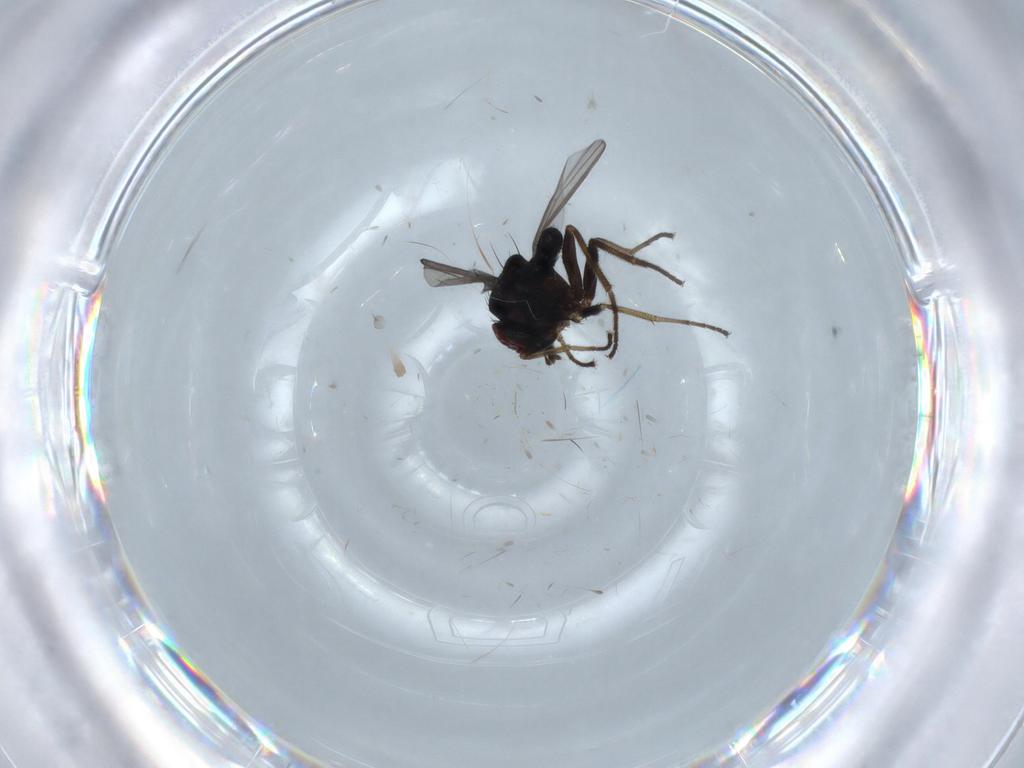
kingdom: Animalia
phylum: Arthropoda
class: Insecta
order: Diptera
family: Dolichopodidae
